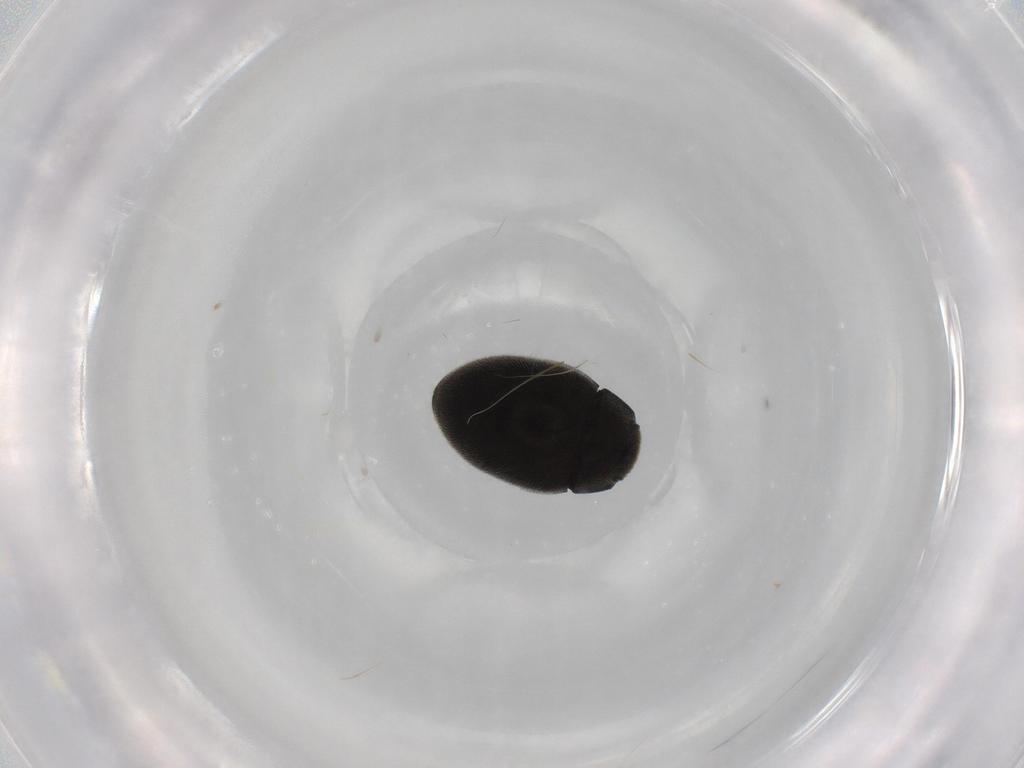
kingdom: Animalia
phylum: Arthropoda
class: Insecta
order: Coleoptera
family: Limnichidae
